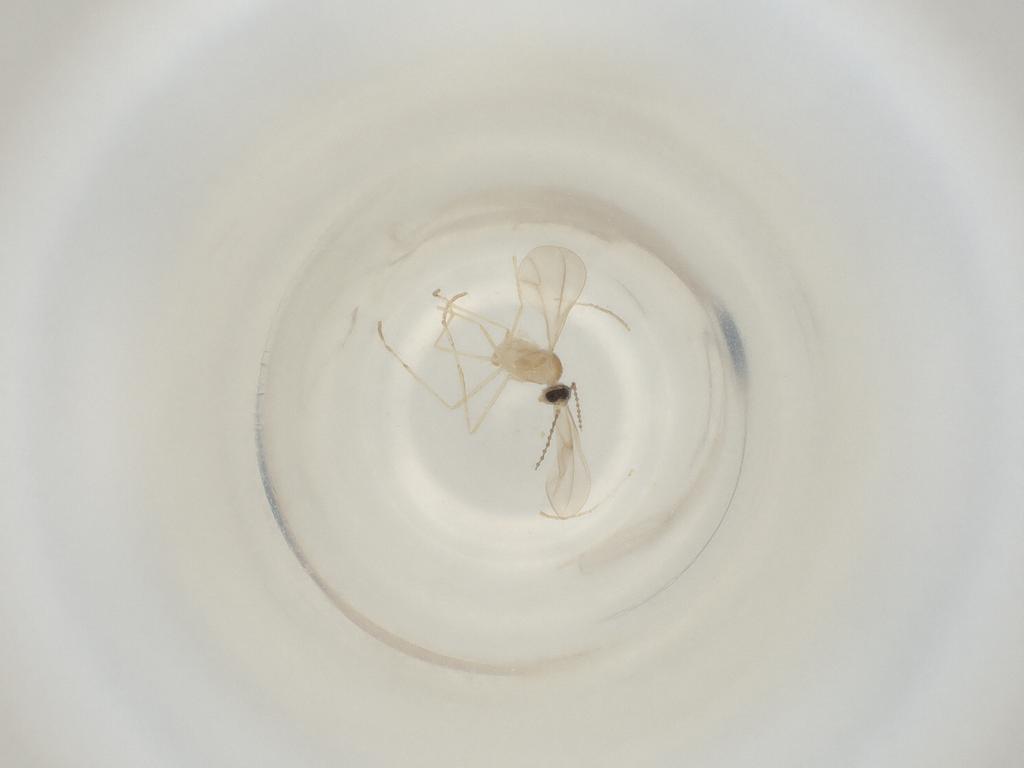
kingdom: Animalia
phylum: Arthropoda
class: Insecta
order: Diptera
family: Cecidomyiidae
